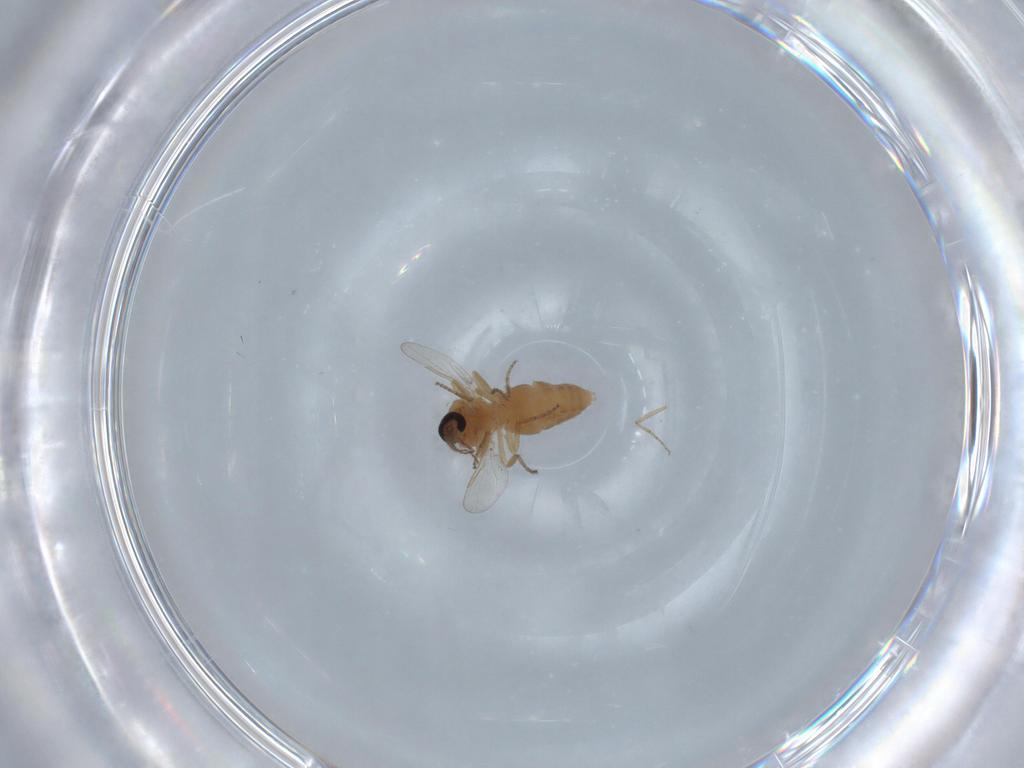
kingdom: Animalia
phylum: Arthropoda
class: Insecta
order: Diptera
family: Ceratopogonidae
